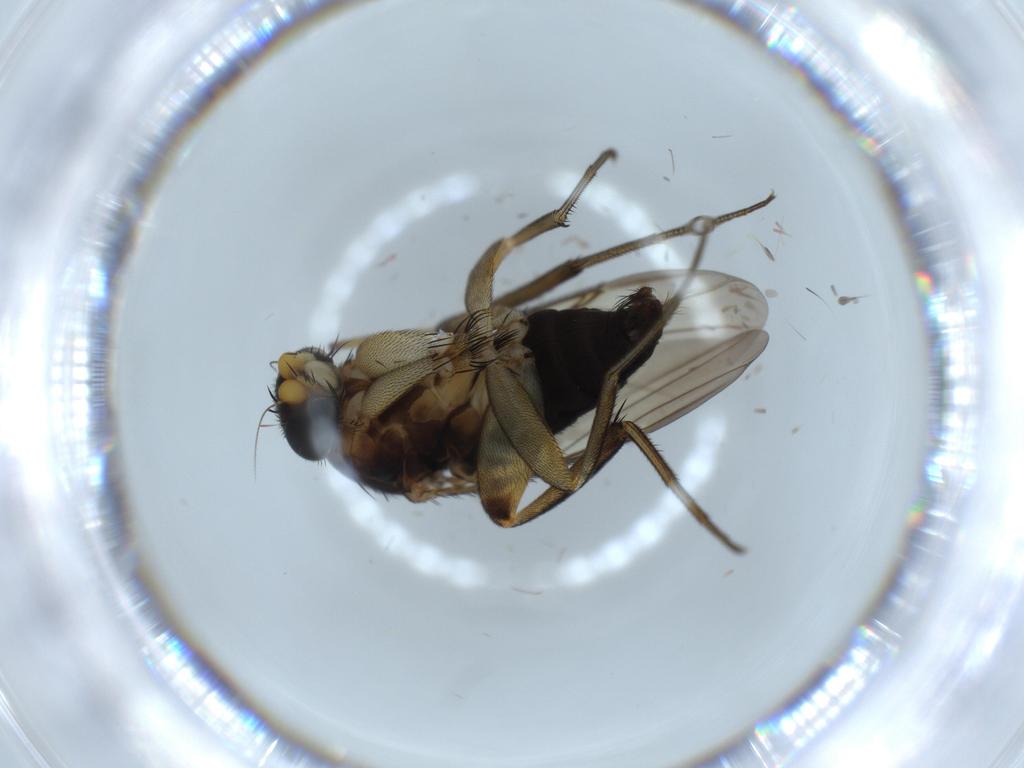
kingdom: Animalia
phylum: Arthropoda
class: Insecta
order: Diptera
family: Phoridae
